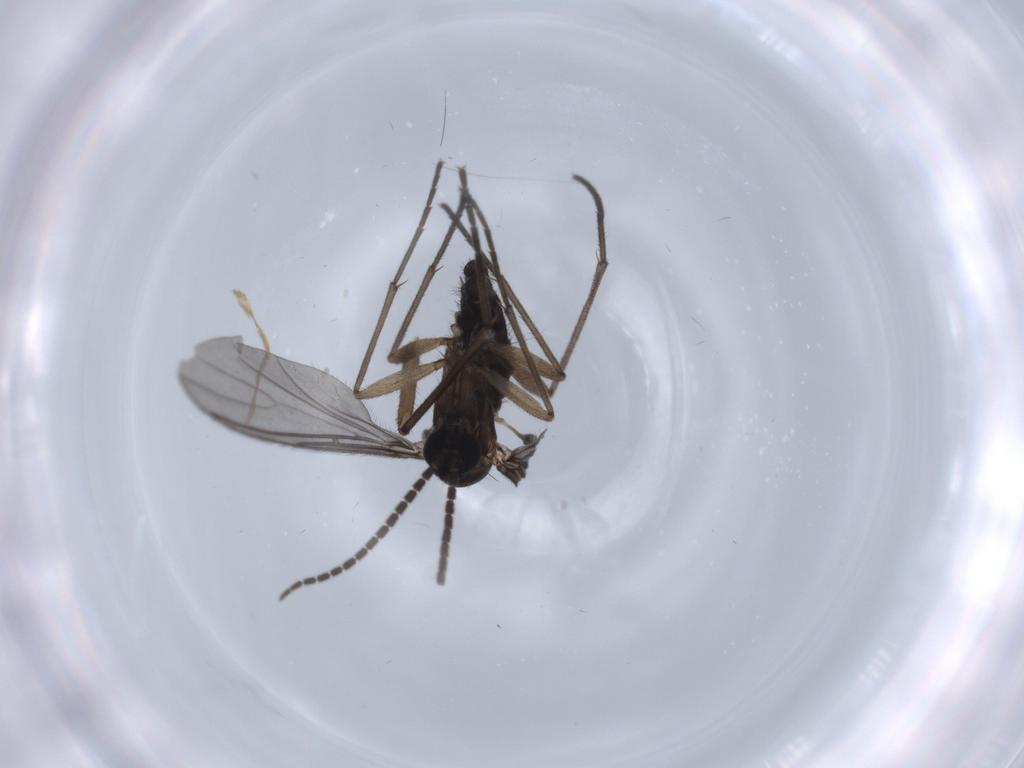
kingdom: Animalia
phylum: Arthropoda
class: Insecta
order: Diptera
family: Sciaridae
